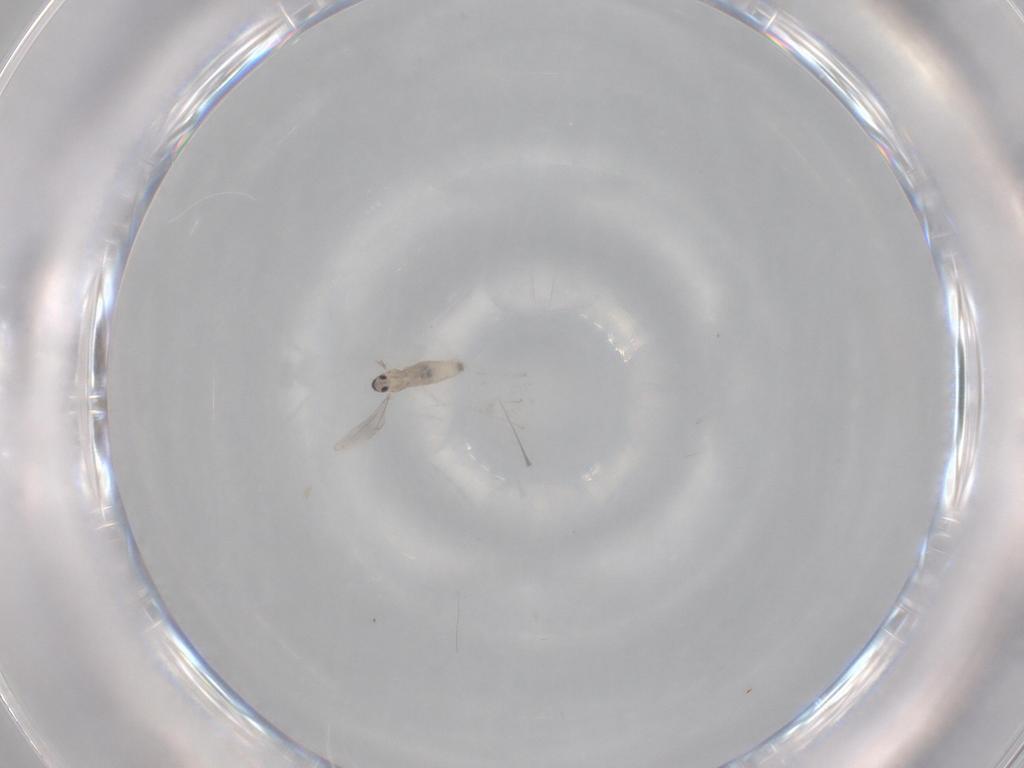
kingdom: Animalia
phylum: Arthropoda
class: Insecta
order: Diptera
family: Cecidomyiidae
